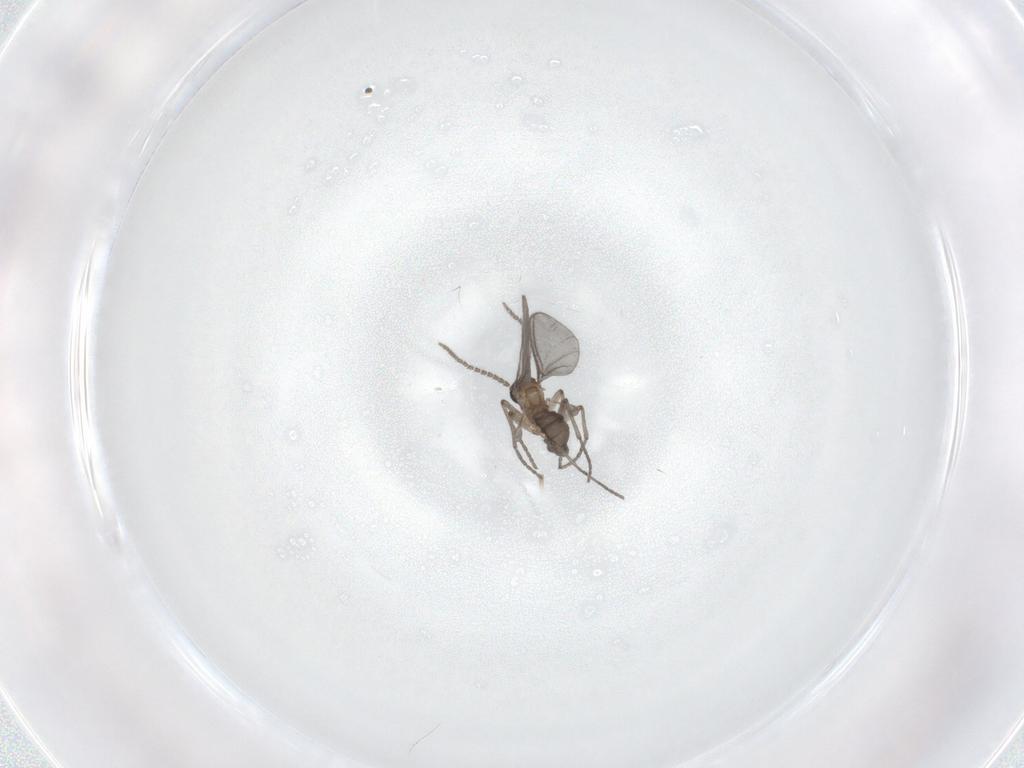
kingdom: Animalia
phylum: Arthropoda
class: Insecta
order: Diptera
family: Sciaridae
